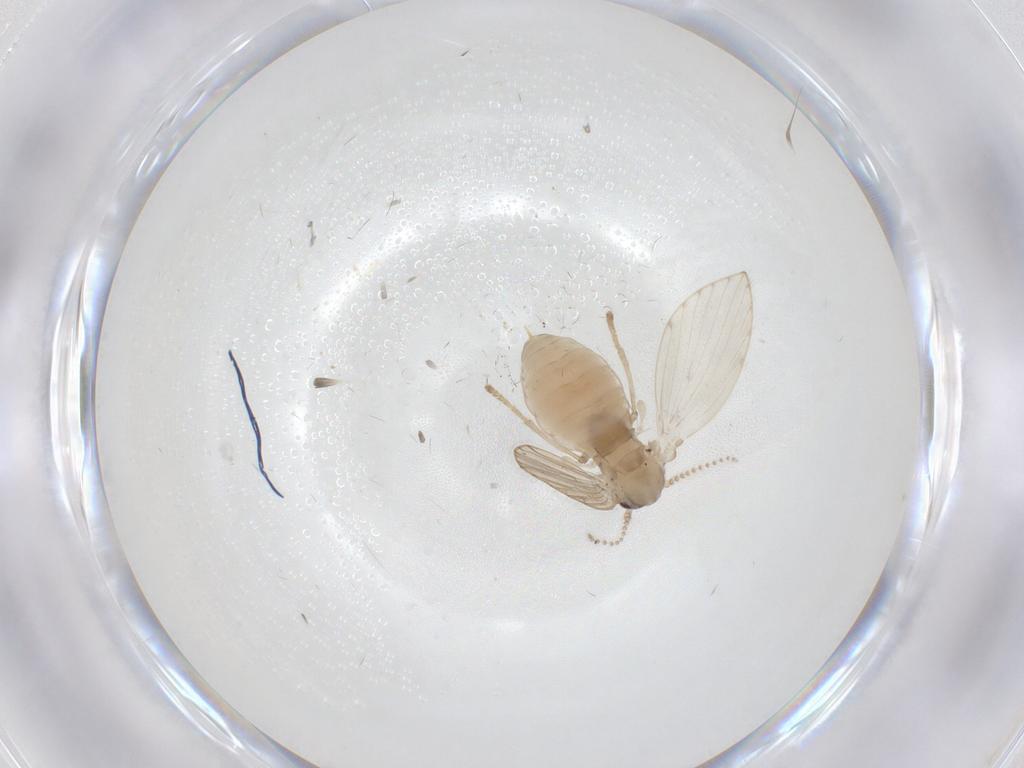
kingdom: Animalia
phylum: Arthropoda
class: Insecta
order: Diptera
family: Psychodidae
